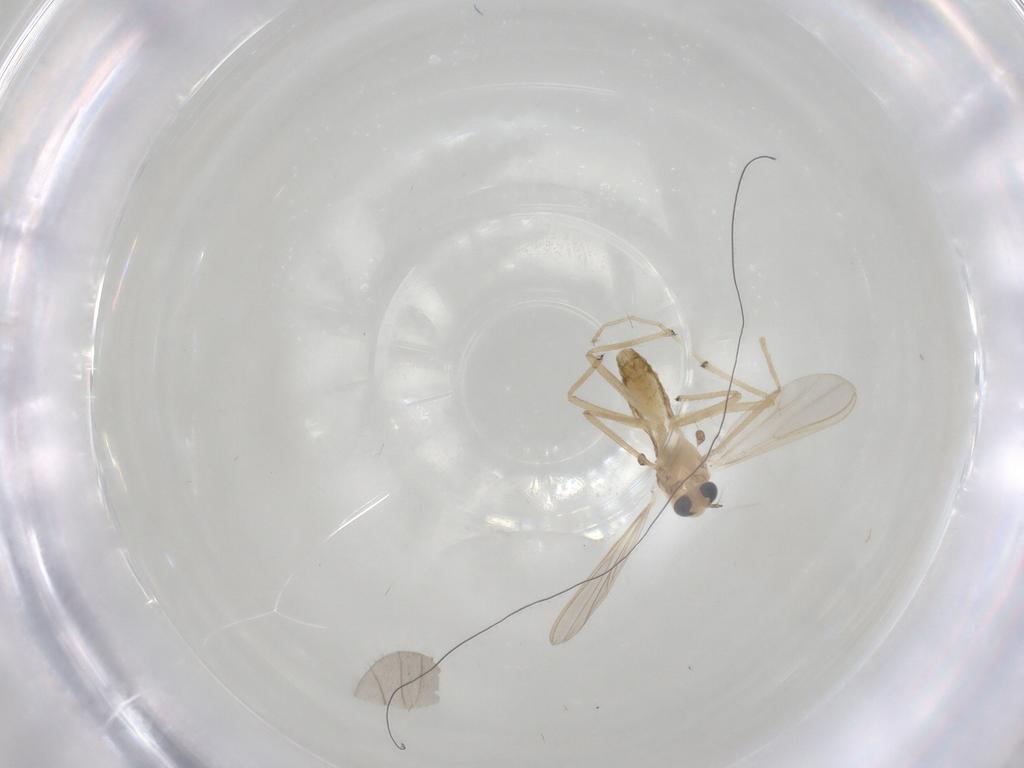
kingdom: Animalia
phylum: Arthropoda
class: Insecta
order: Diptera
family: Chironomidae
